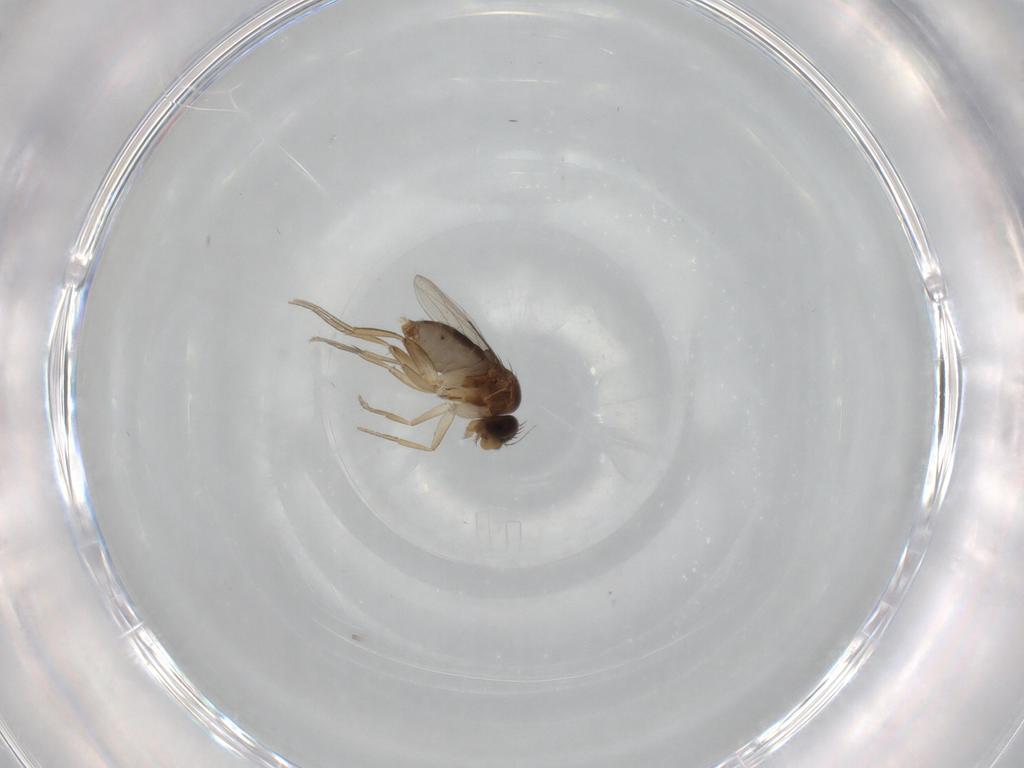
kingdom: Animalia
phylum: Arthropoda
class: Insecta
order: Diptera
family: Phoridae
